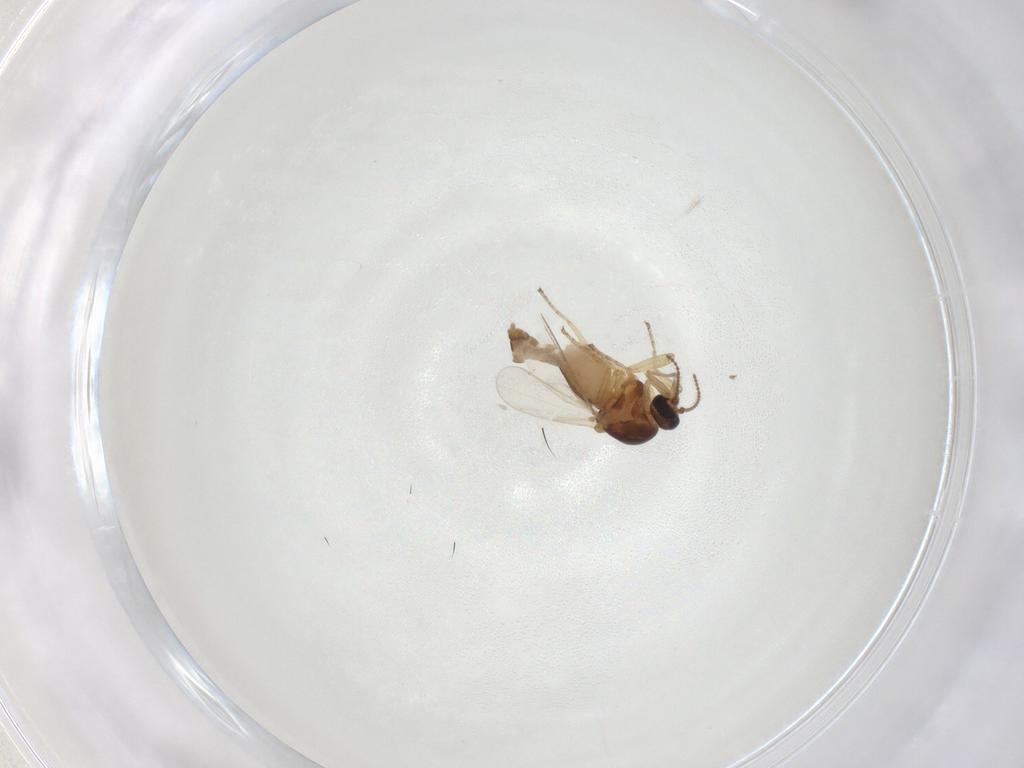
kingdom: Animalia
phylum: Arthropoda
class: Insecta
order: Diptera
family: Ceratopogonidae
